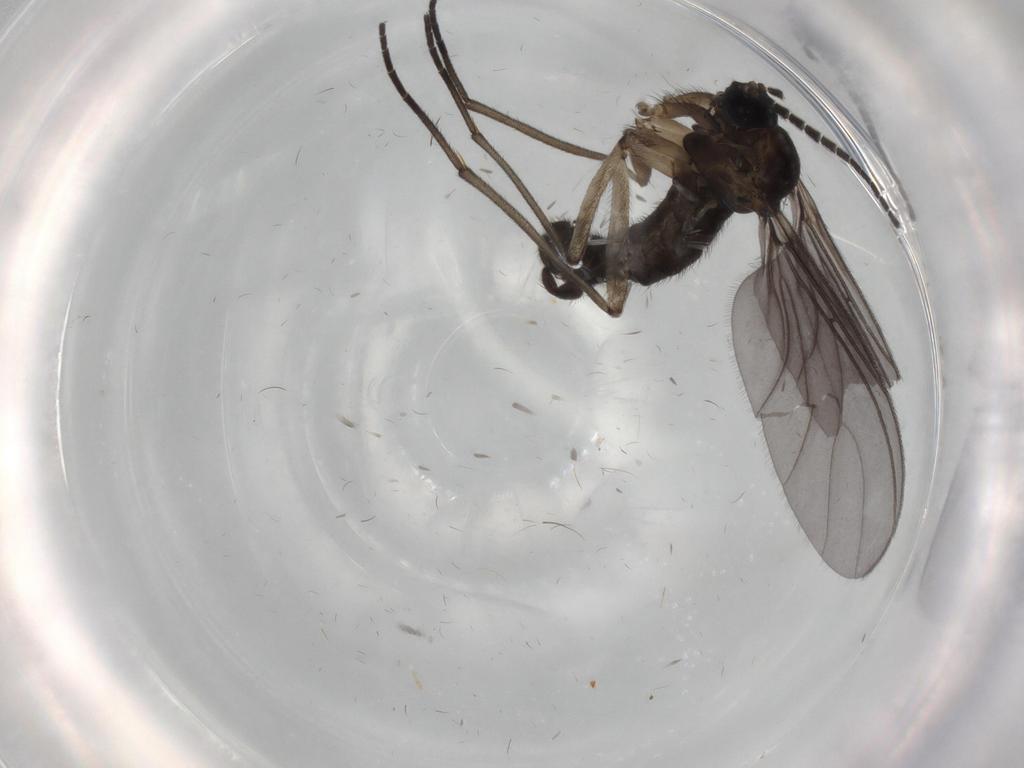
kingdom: Animalia
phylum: Arthropoda
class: Insecta
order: Diptera
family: Sciaridae
